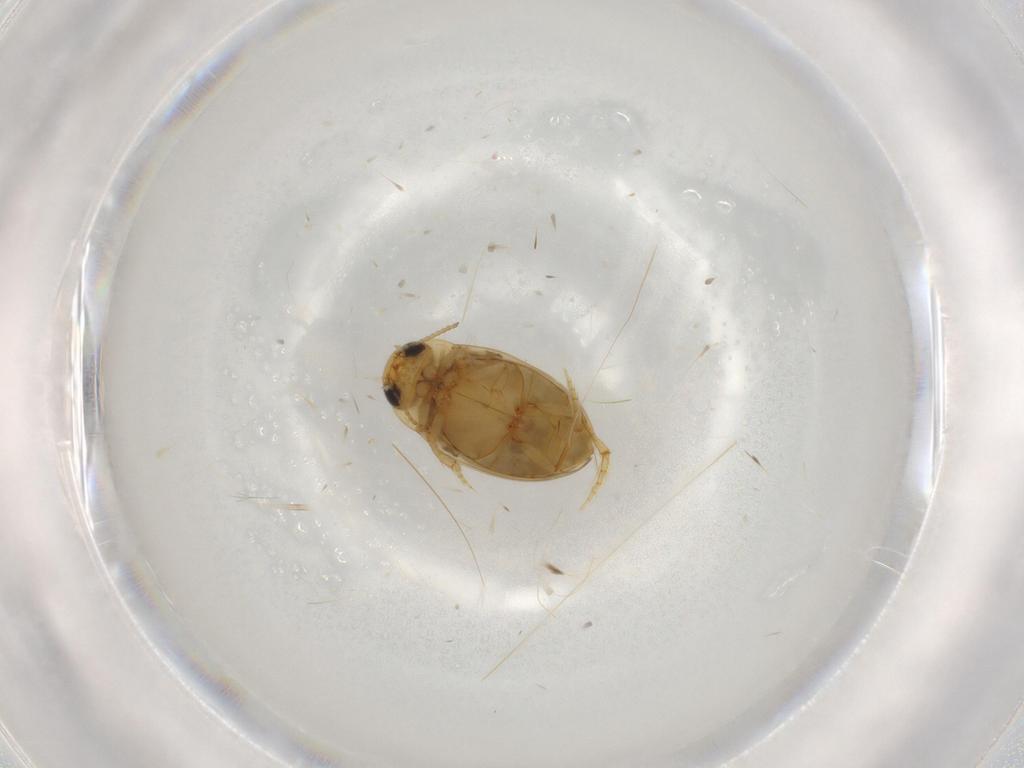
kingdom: Animalia
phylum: Arthropoda
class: Insecta
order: Coleoptera
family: Dytiscidae
